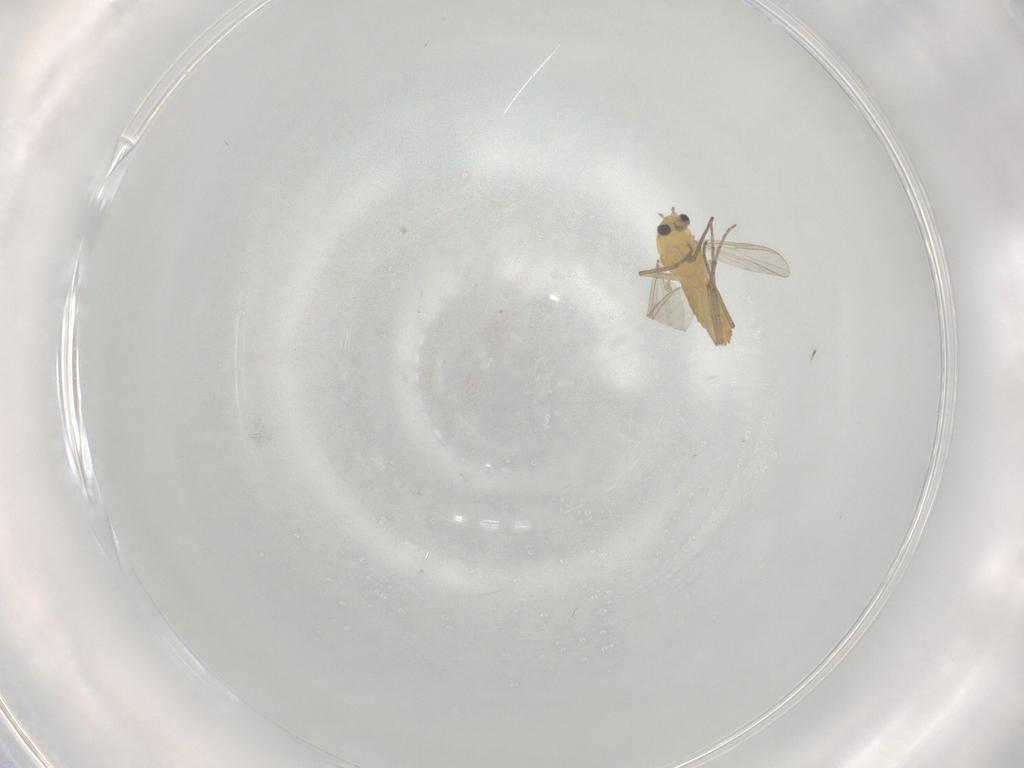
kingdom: Animalia
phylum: Arthropoda
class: Insecta
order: Diptera
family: Chironomidae
